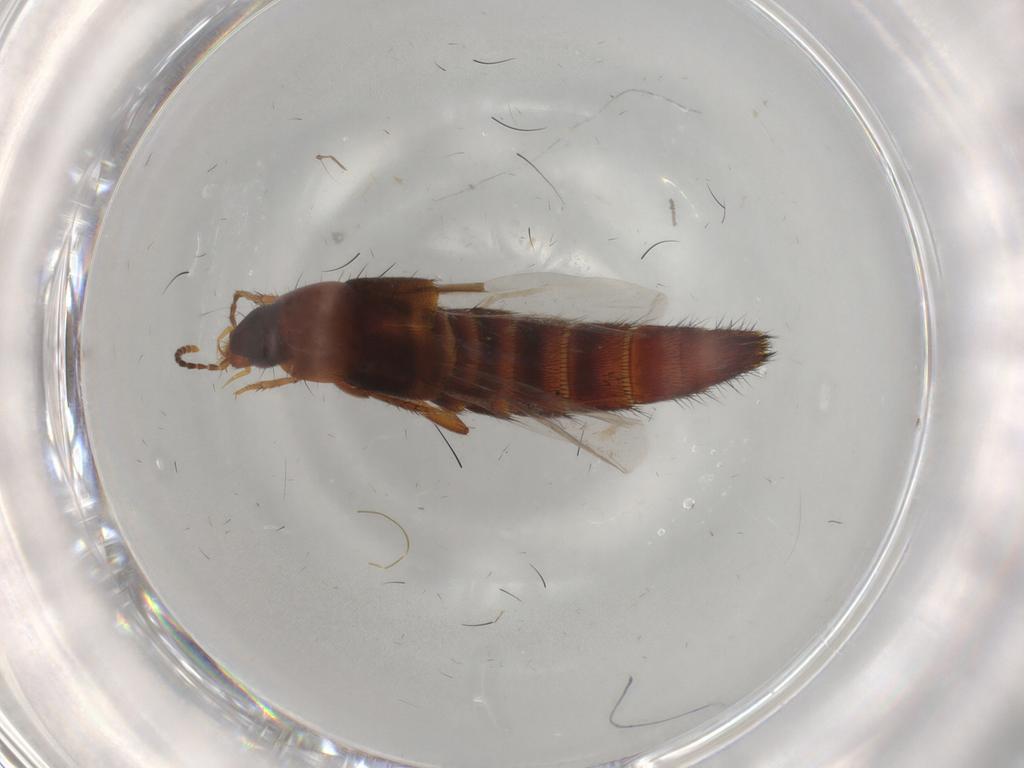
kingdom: Animalia
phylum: Arthropoda
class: Insecta
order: Coleoptera
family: Staphylinidae
